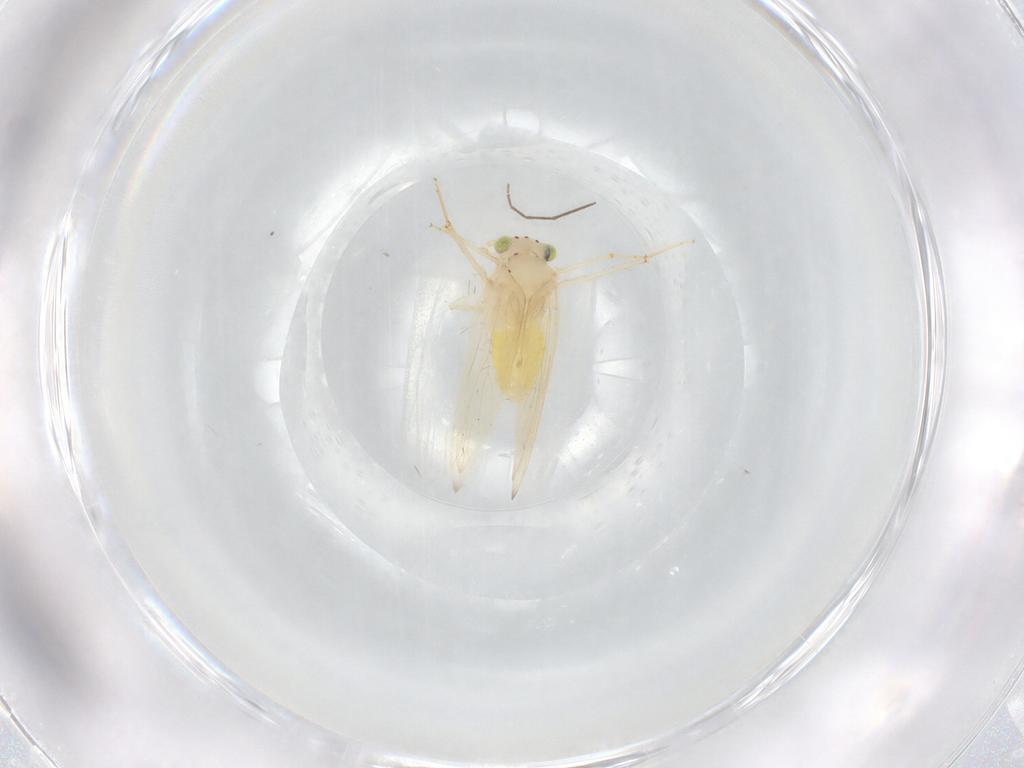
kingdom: Animalia
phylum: Arthropoda
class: Insecta
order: Psocodea
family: Lepidopsocidae
